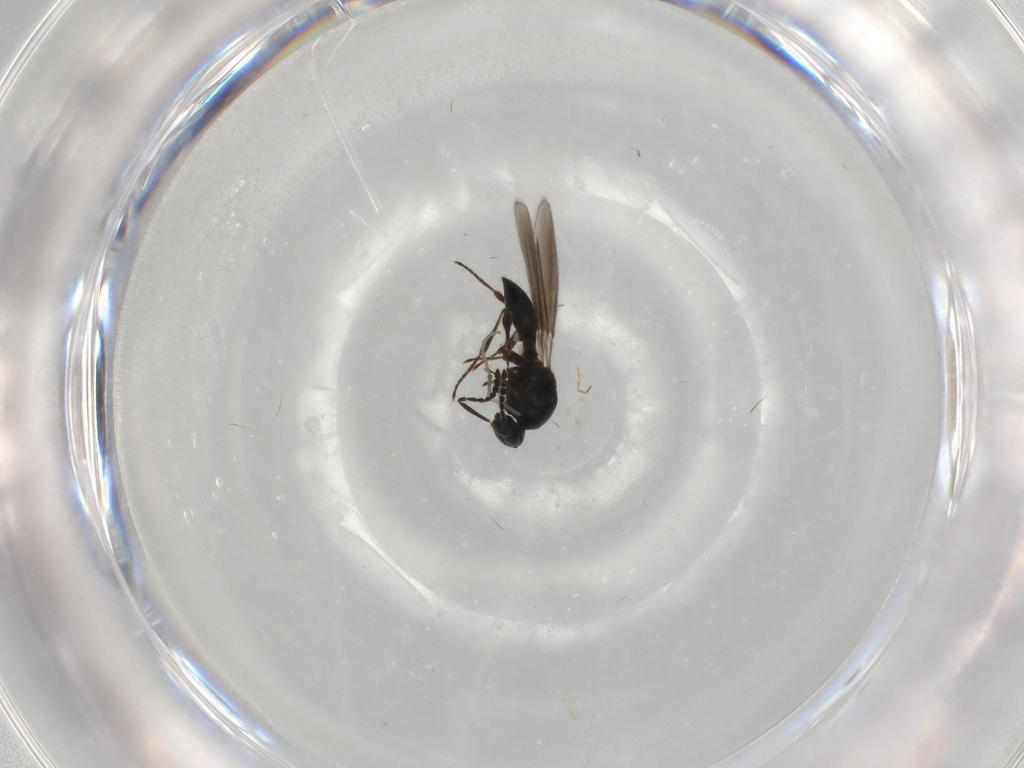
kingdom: Animalia
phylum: Arthropoda
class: Insecta
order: Hymenoptera
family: Platygastridae
